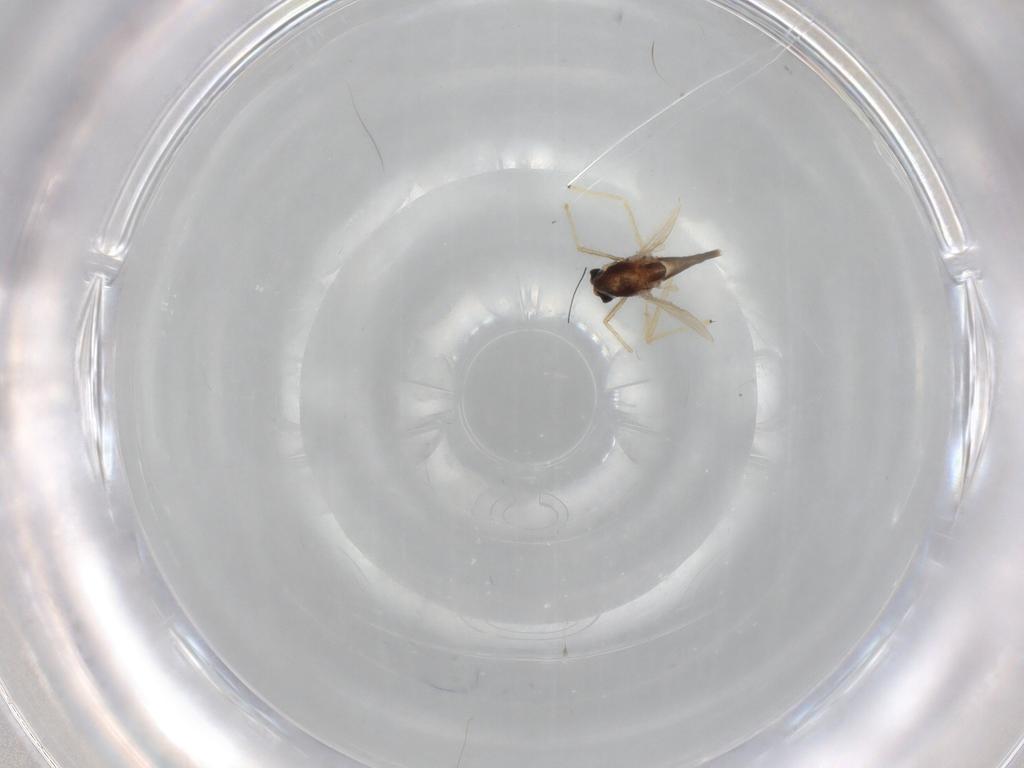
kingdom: Animalia
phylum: Arthropoda
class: Insecta
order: Diptera
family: Chironomidae
